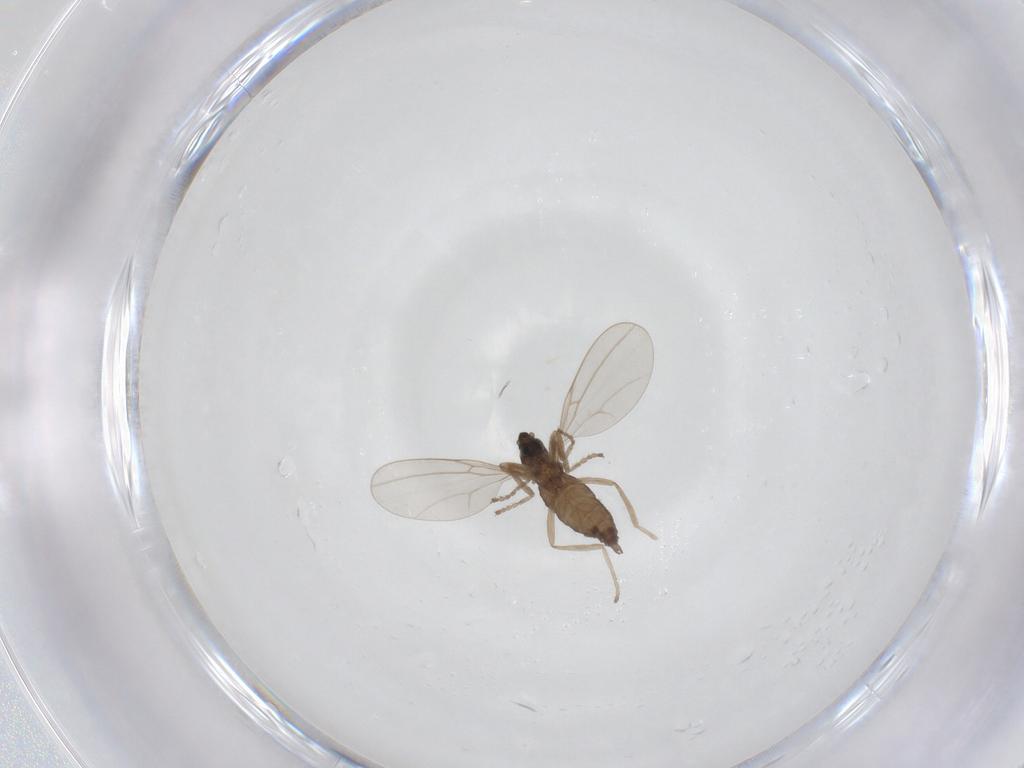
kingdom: Animalia
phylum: Arthropoda
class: Insecta
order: Diptera
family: Cecidomyiidae
